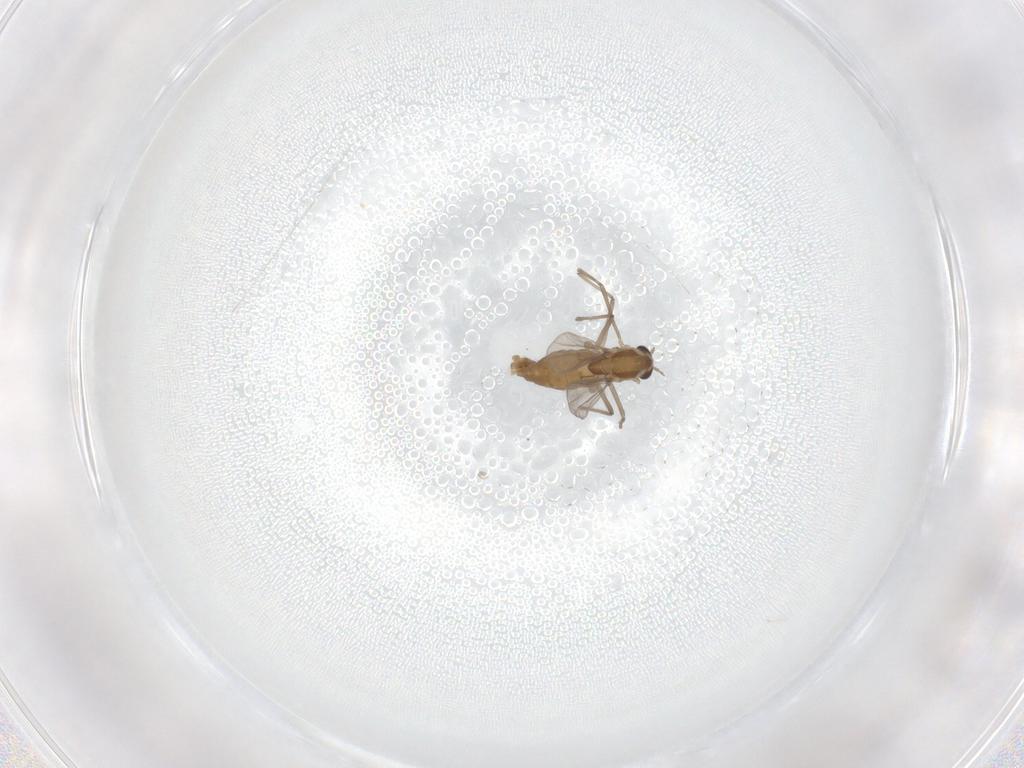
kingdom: Animalia
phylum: Arthropoda
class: Insecta
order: Diptera
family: Chironomidae
